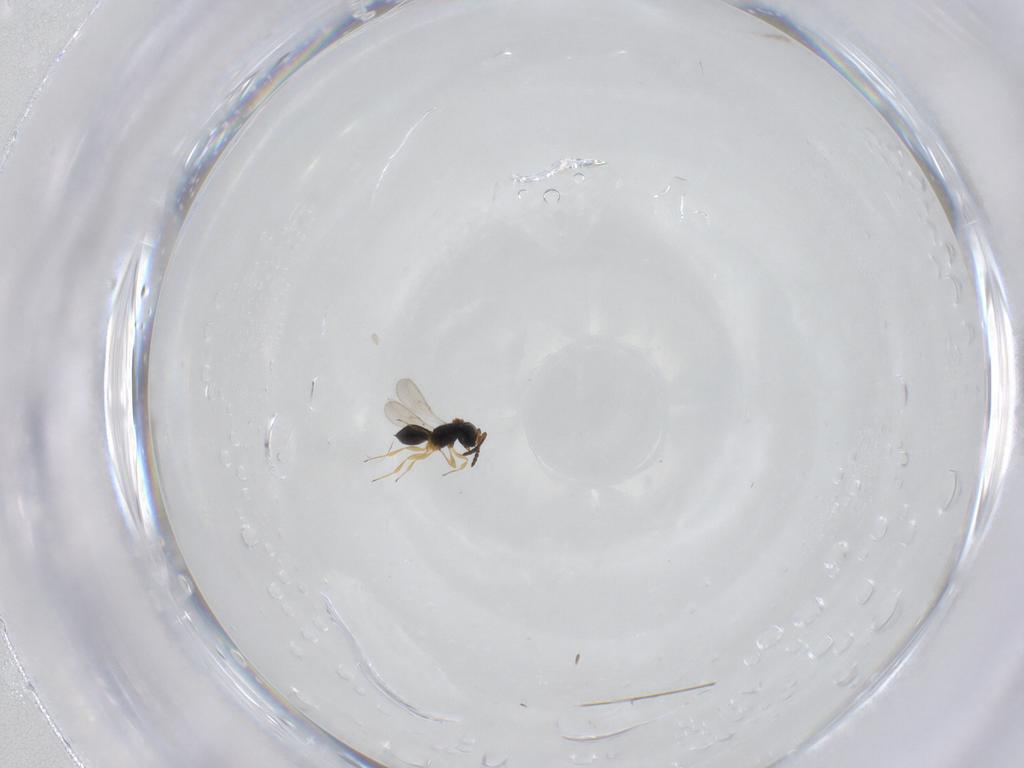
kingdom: Animalia
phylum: Arthropoda
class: Insecta
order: Hymenoptera
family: Scelionidae
